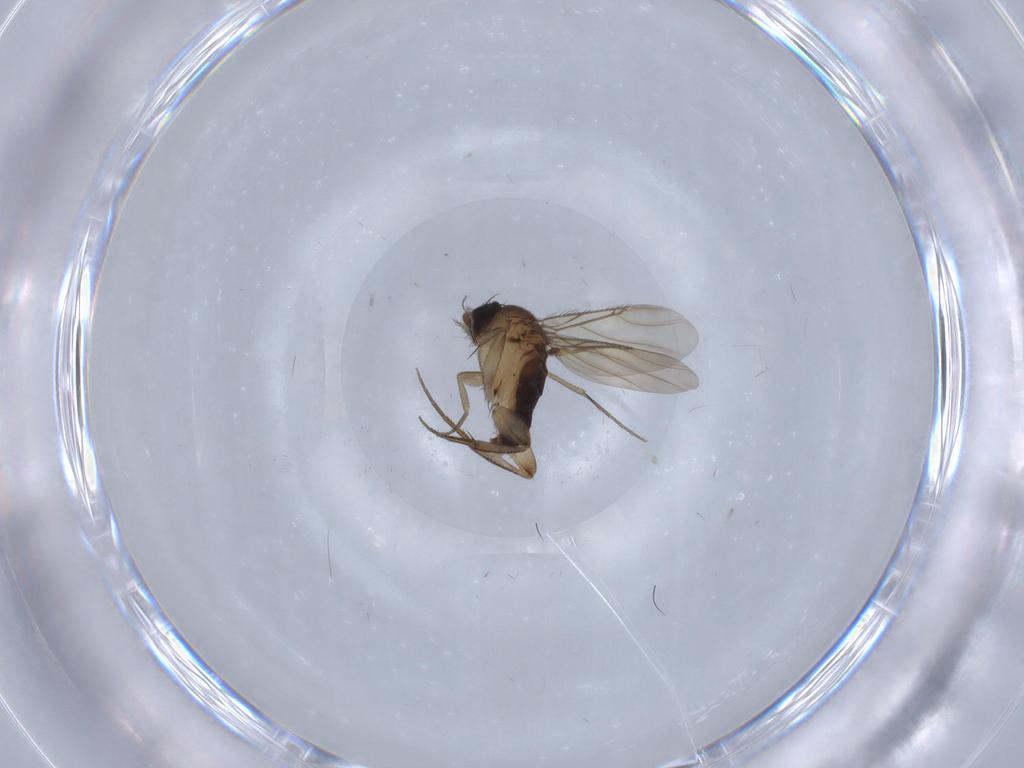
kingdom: Animalia
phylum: Arthropoda
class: Insecta
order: Diptera
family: Phoridae
